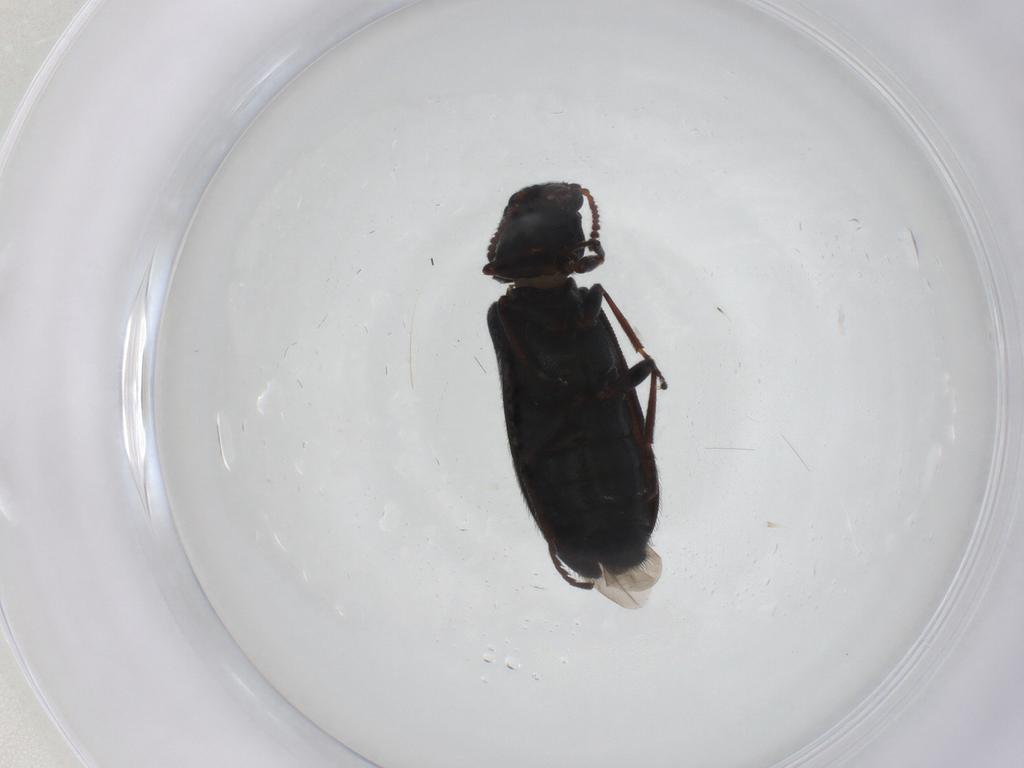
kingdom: Animalia
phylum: Arthropoda
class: Insecta
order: Coleoptera
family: Melyridae
